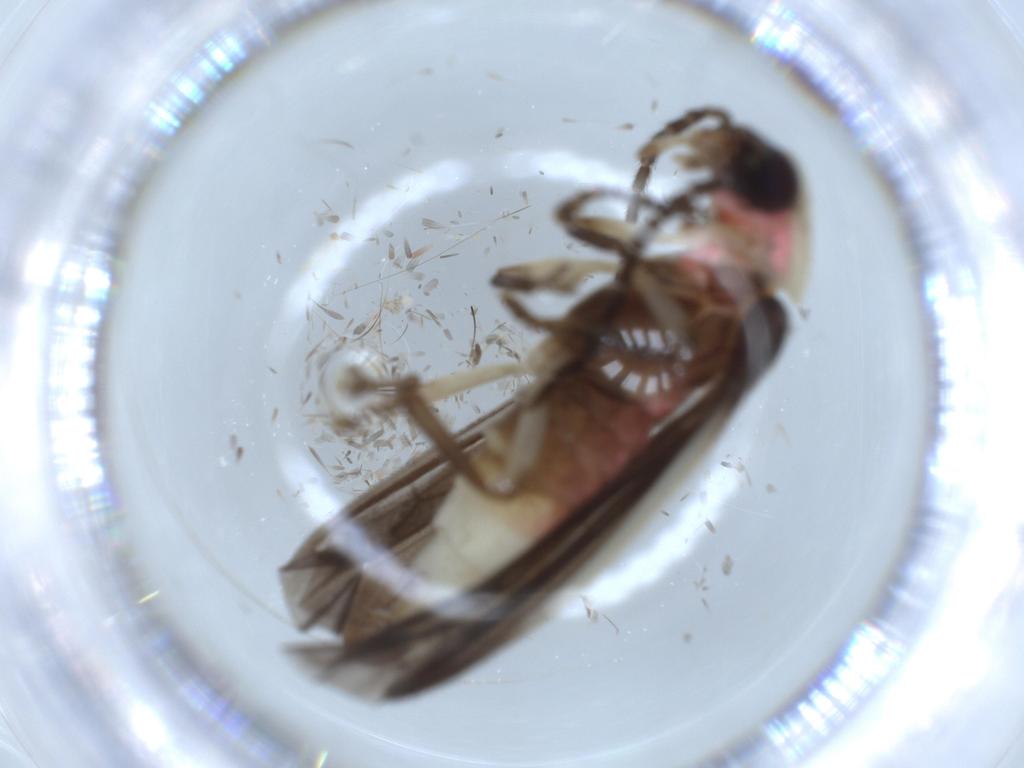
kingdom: Animalia
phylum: Arthropoda
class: Insecta
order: Coleoptera
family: Lampyridae
